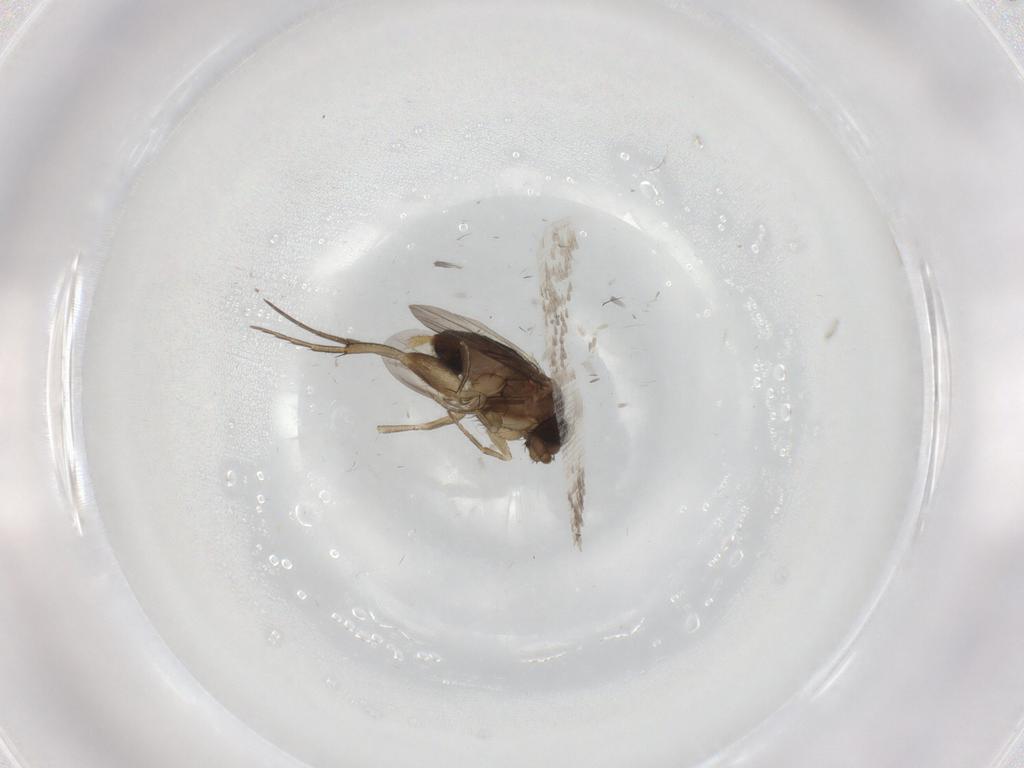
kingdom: Animalia
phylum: Arthropoda
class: Insecta
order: Diptera
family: Phoridae
